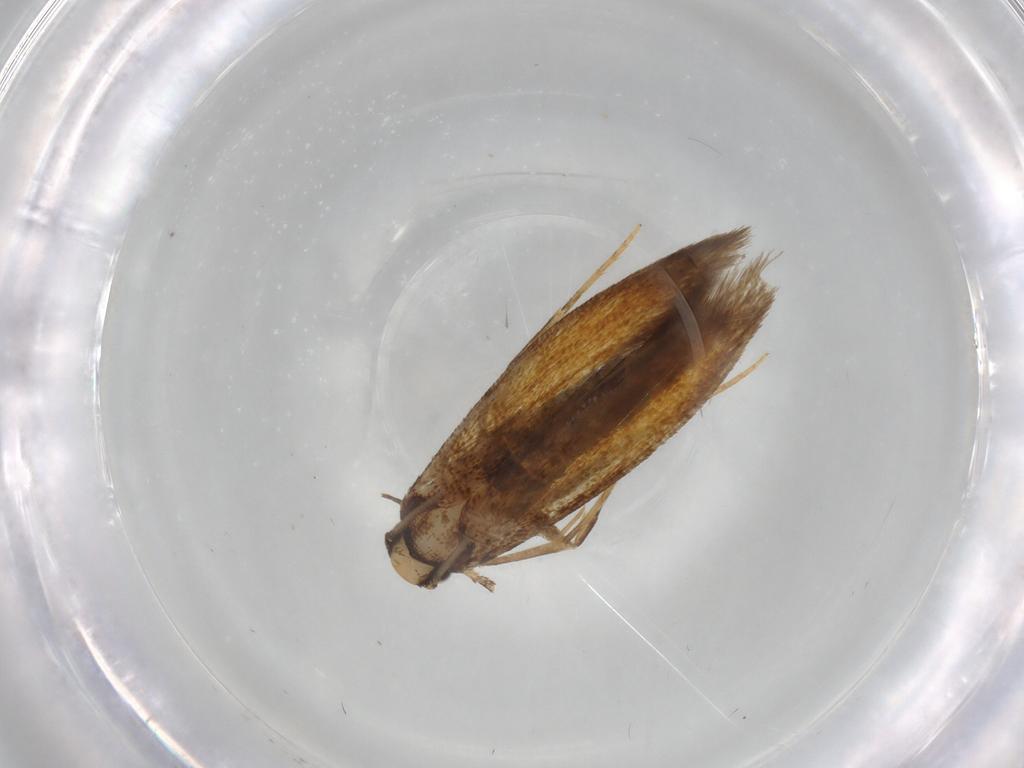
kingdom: Animalia
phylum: Arthropoda
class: Insecta
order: Lepidoptera
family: Tineidae
